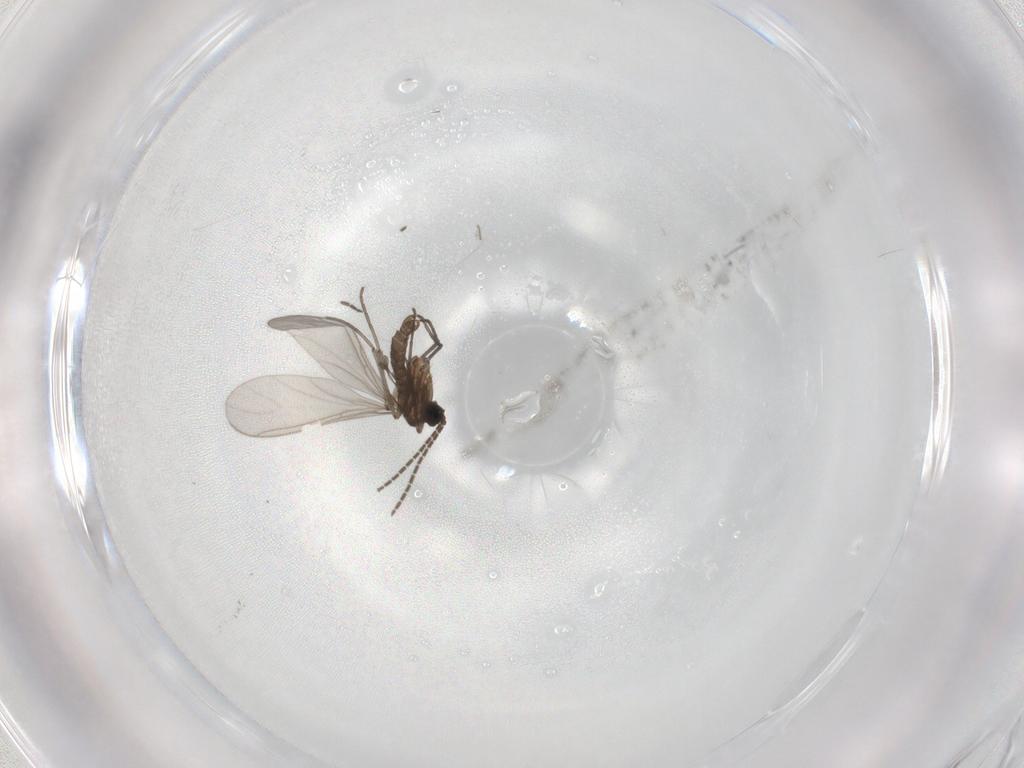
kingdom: Animalia
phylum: Arthropoda
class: Insecta
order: Diptera
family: Sciaridae
